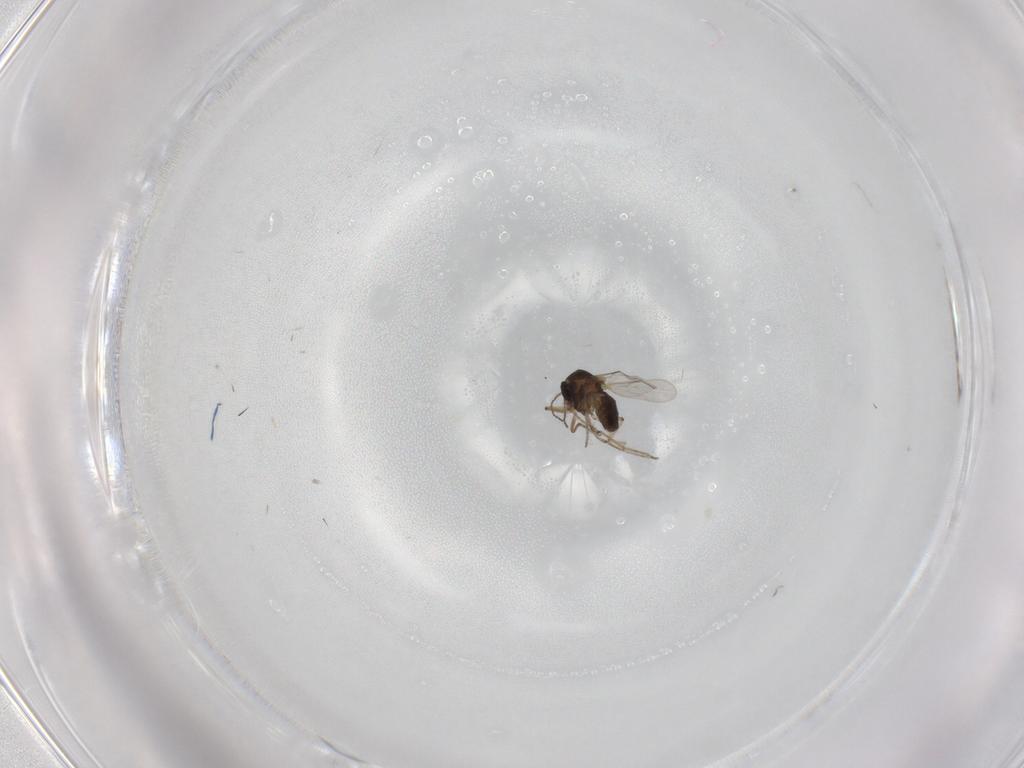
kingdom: Animalia
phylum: Arthropoda
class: Insecta
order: Diptera
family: Ceratopogonidae
